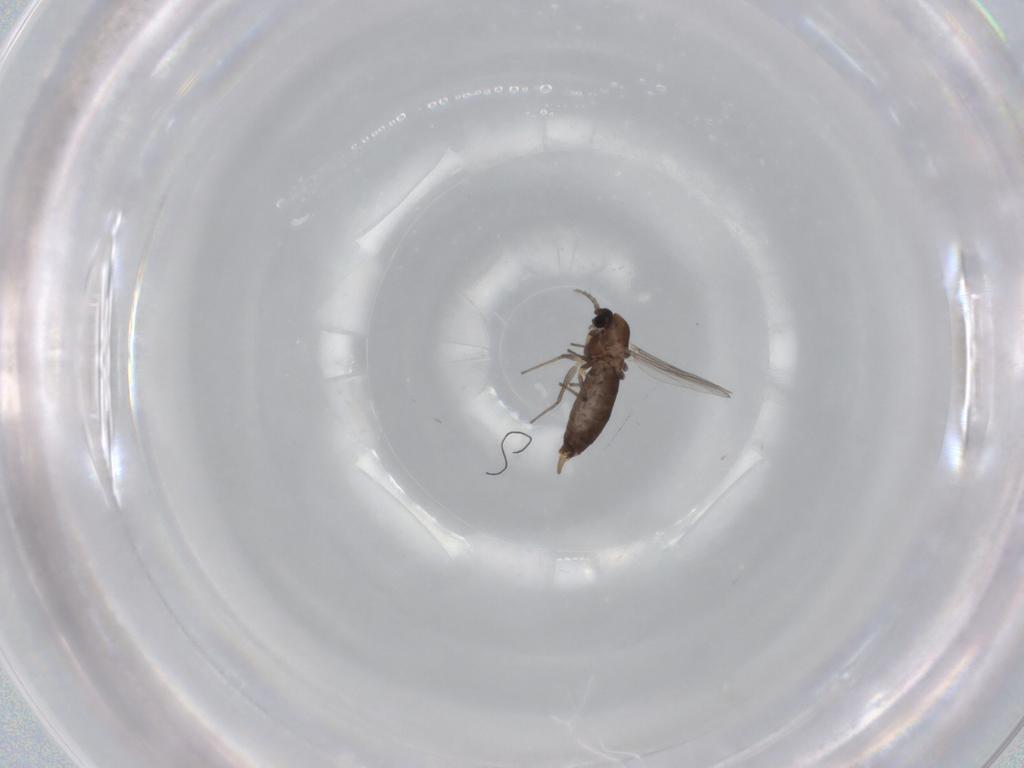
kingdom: Animalia
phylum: Arthropoda
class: Insecta
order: Diptera
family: Chironomidae
